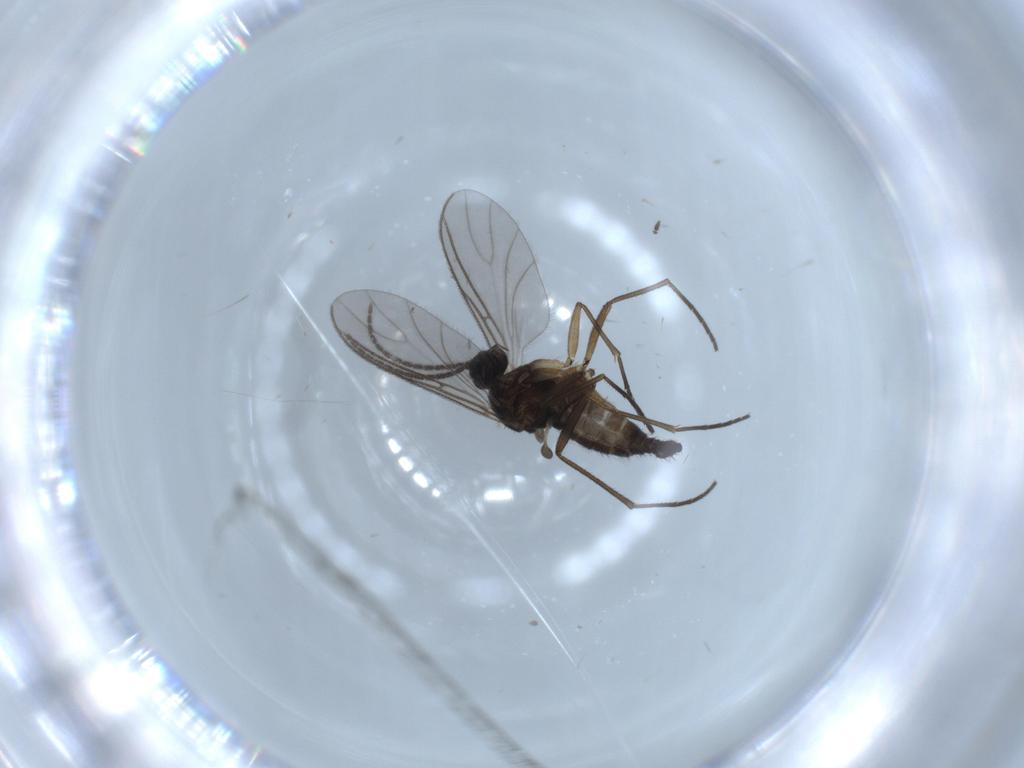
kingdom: Animalia
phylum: Arthropoda
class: Insecta
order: Diptera
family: Sciaridae
